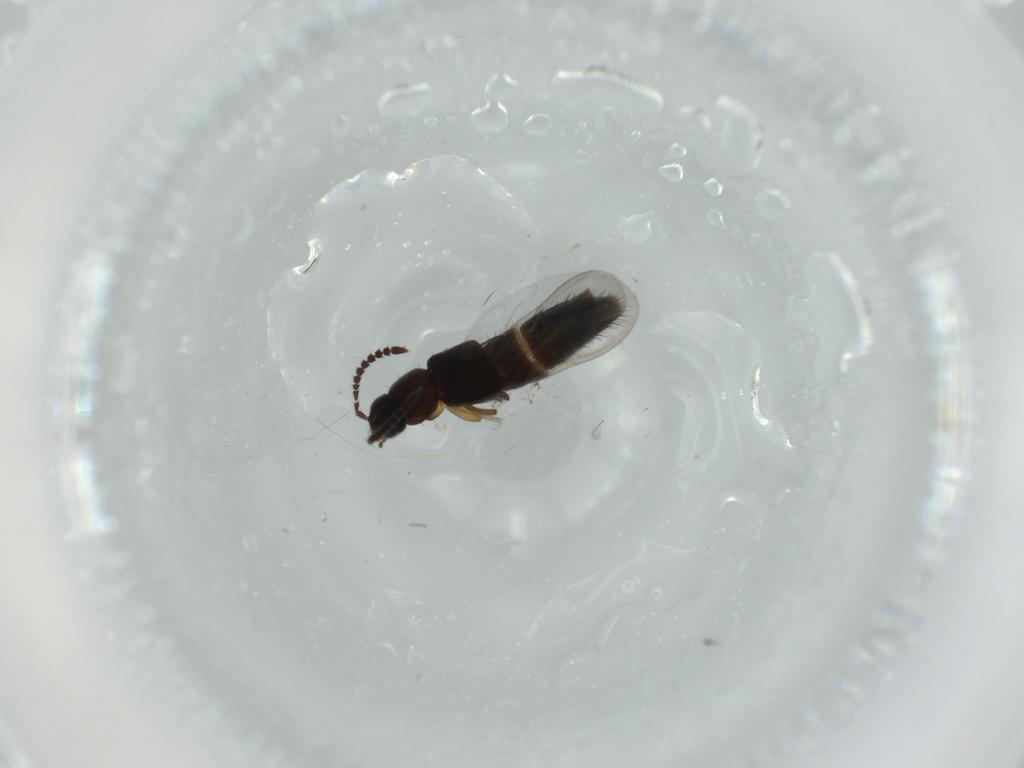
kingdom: Animalia
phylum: Arthropoda
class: Insecta
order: Coleoptera
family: Staphylinidae
